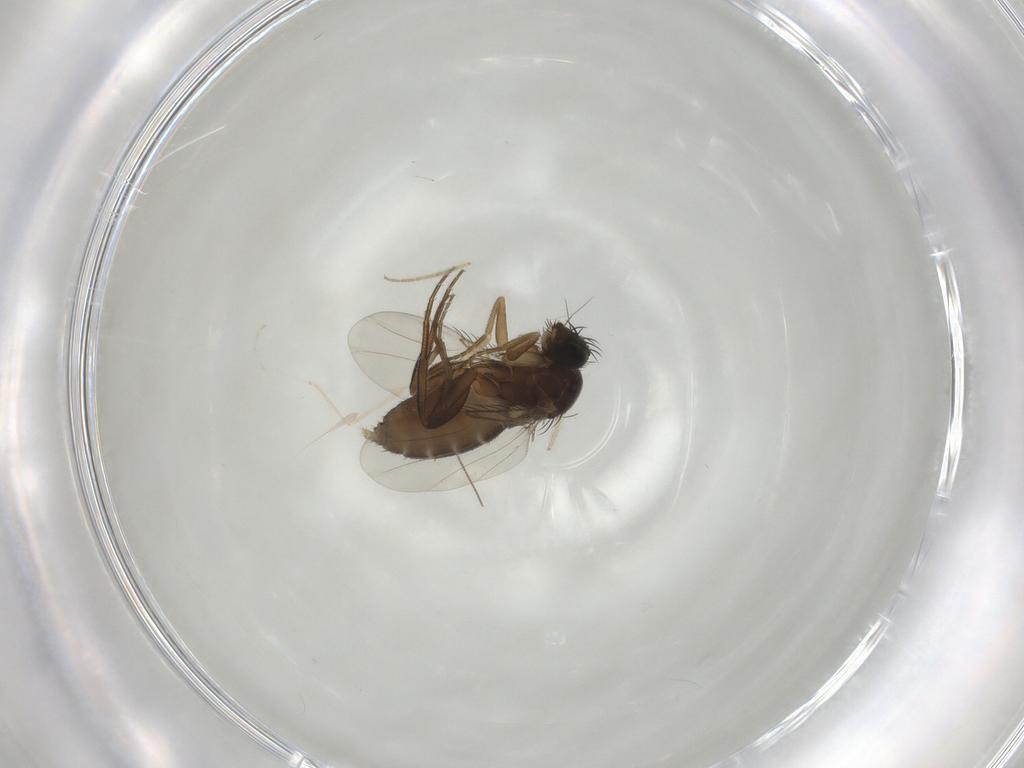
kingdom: Animalia
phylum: Arthropoda
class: Insecta
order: Diptera
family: Phoridae
